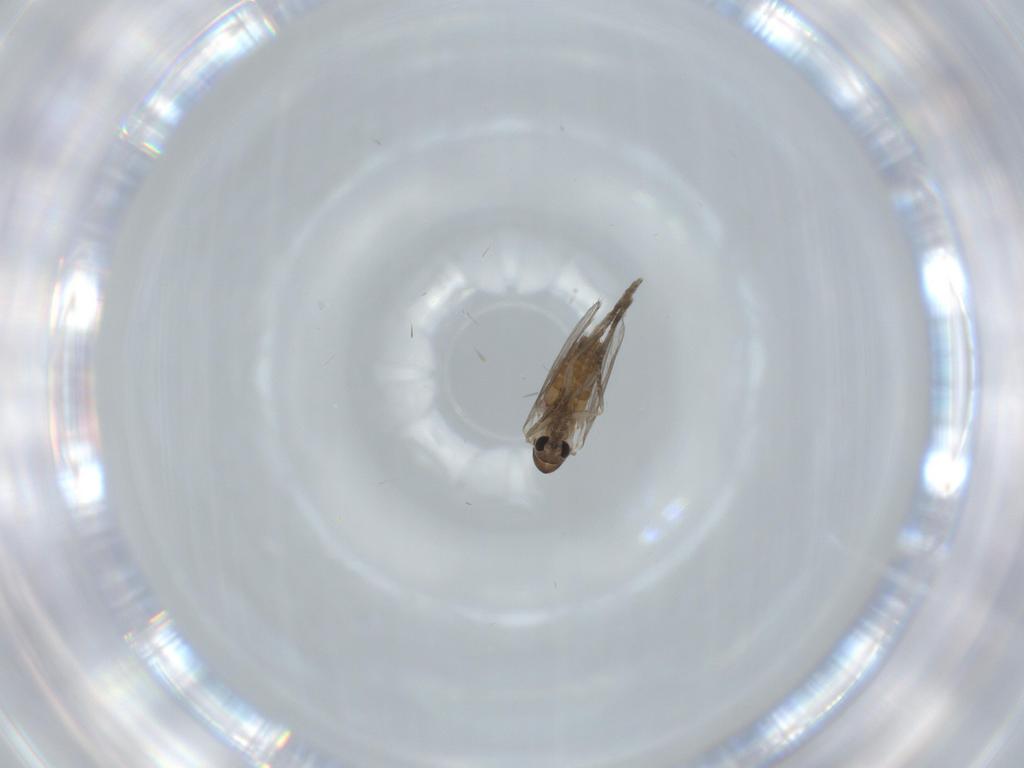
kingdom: Animalia
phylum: Arthropoda
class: Insecta
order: Diptera
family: Psychodidae
